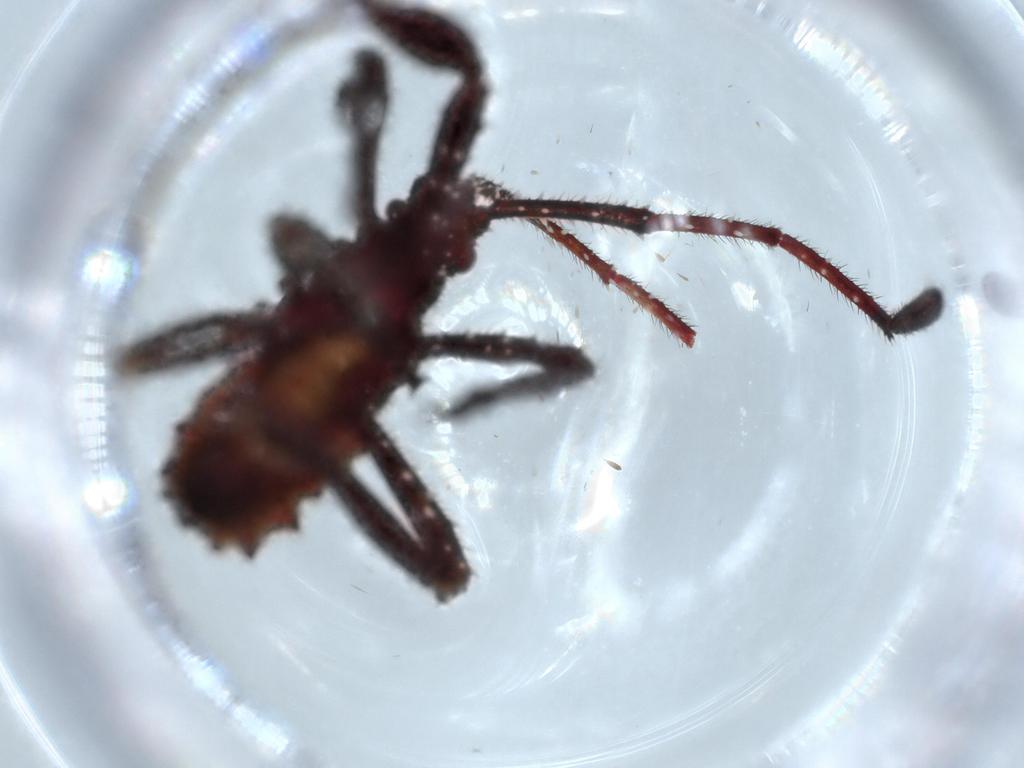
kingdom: Animalia
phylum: Arthropoda
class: Insecta
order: Hemiptera
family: Coreidae
